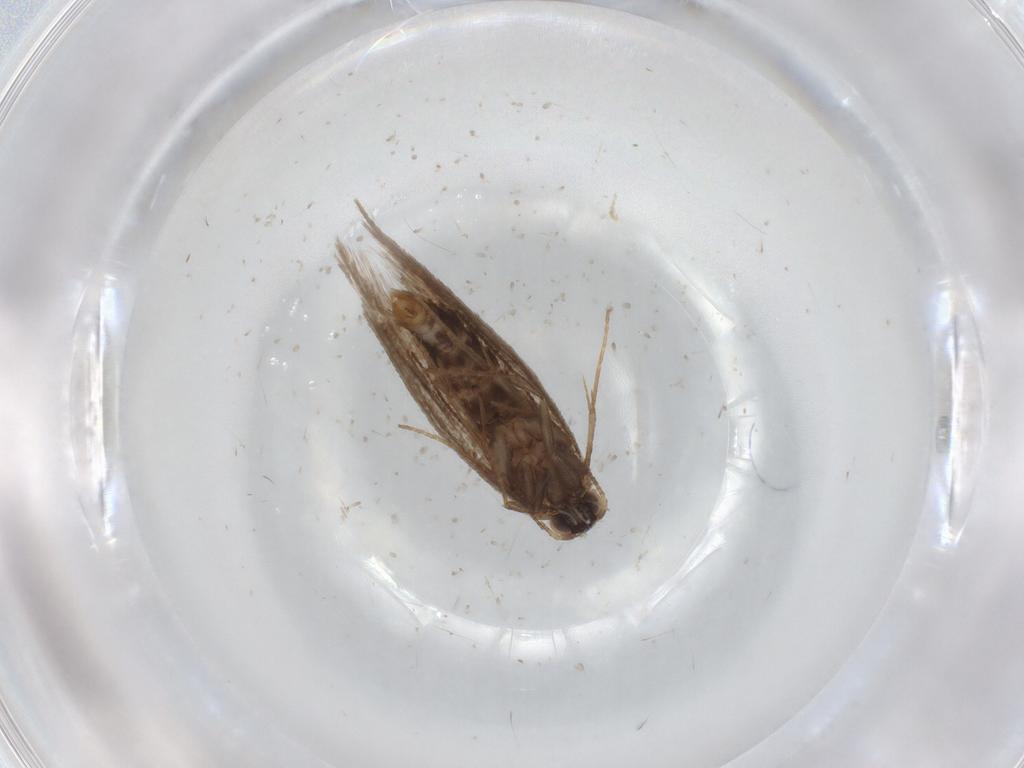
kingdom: Animalia
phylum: Arthropoda
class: Insecta
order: Lepidoptera
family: Nepticulidae
